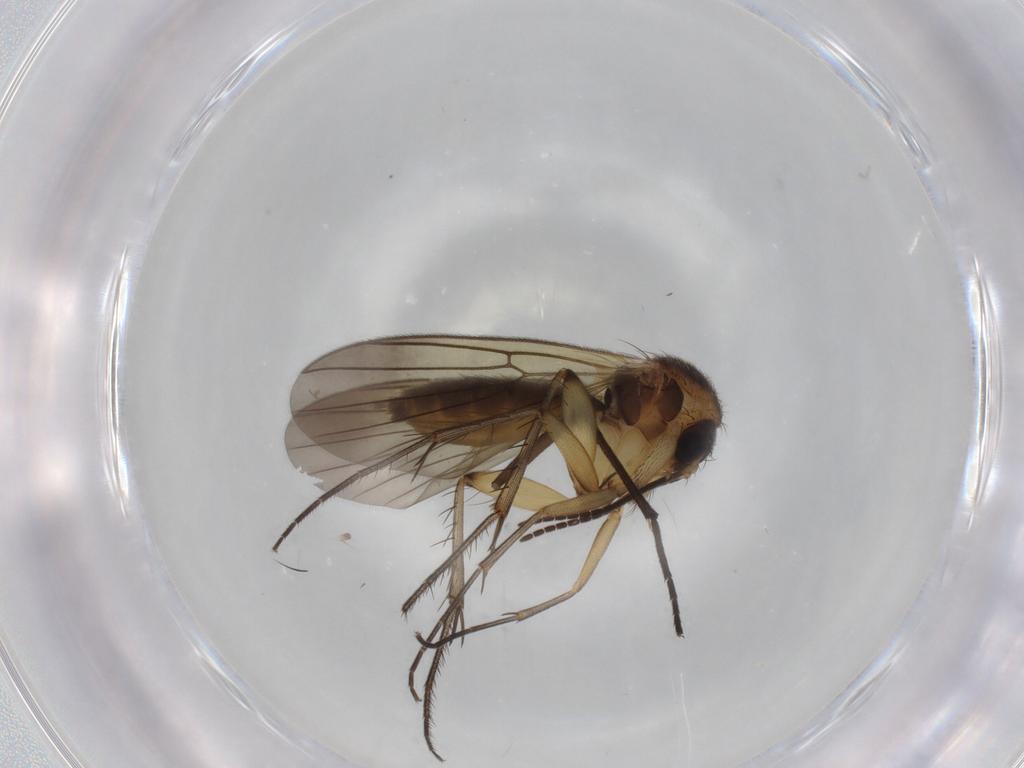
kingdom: Animalia
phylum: Arthropoda
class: Insecta
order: Diptera
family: Mycetophilidae
